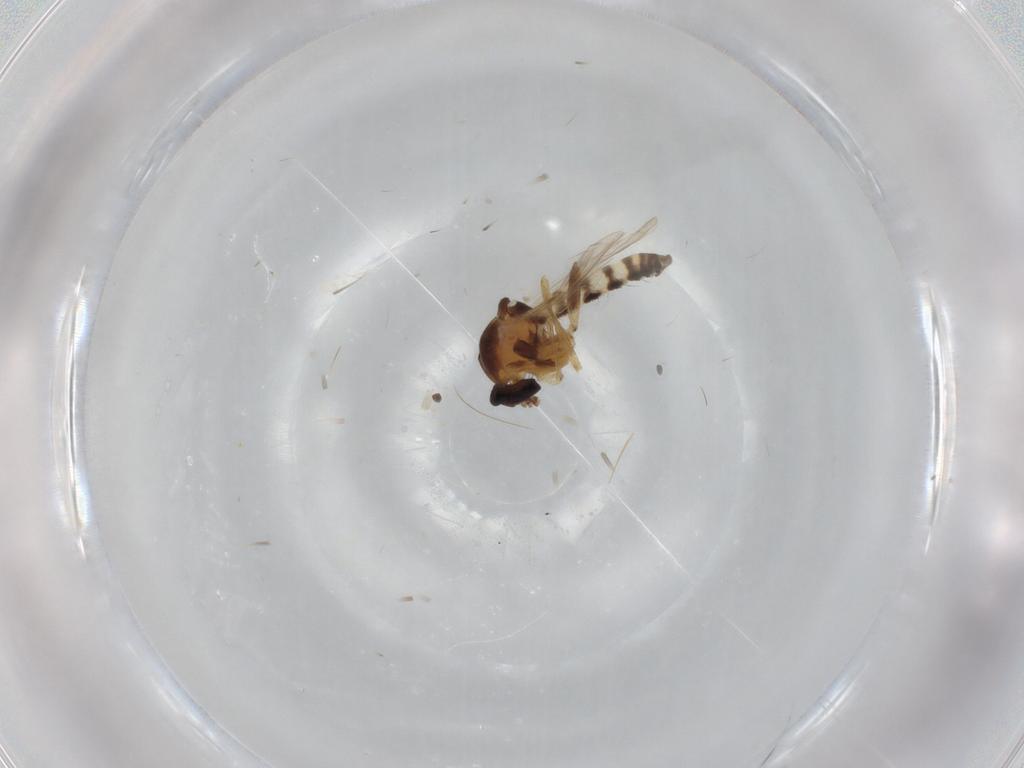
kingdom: Animalia
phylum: Arthropoda
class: Insecta
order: Diptera
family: Ceratopogonidae
